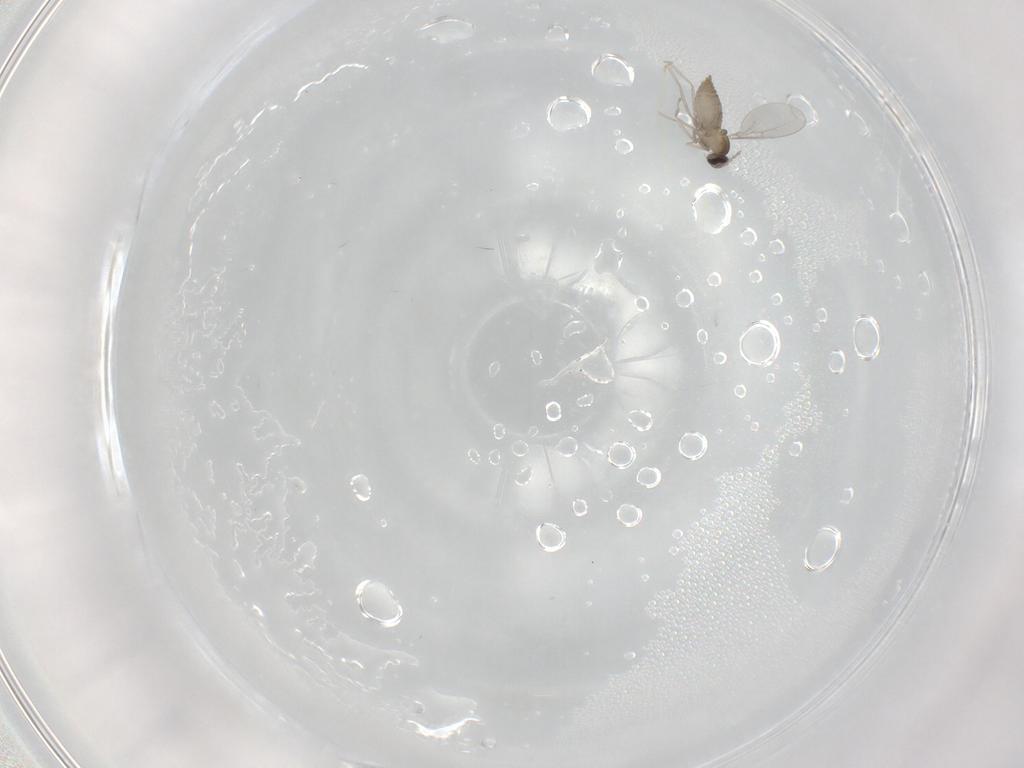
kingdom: Animalia
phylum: Arthropoda
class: Insecta
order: Diptera
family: Cecidomyiidae
